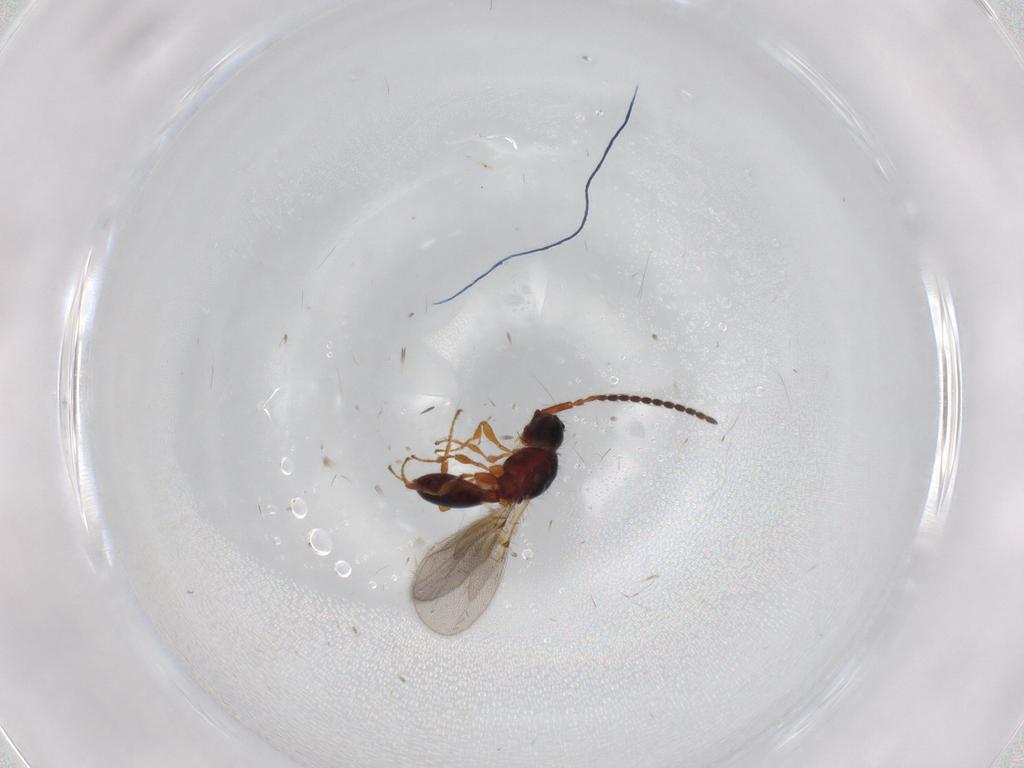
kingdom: Animalia
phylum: Arthropoda
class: Insecta
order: Hymenoptera
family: Diapriidae
